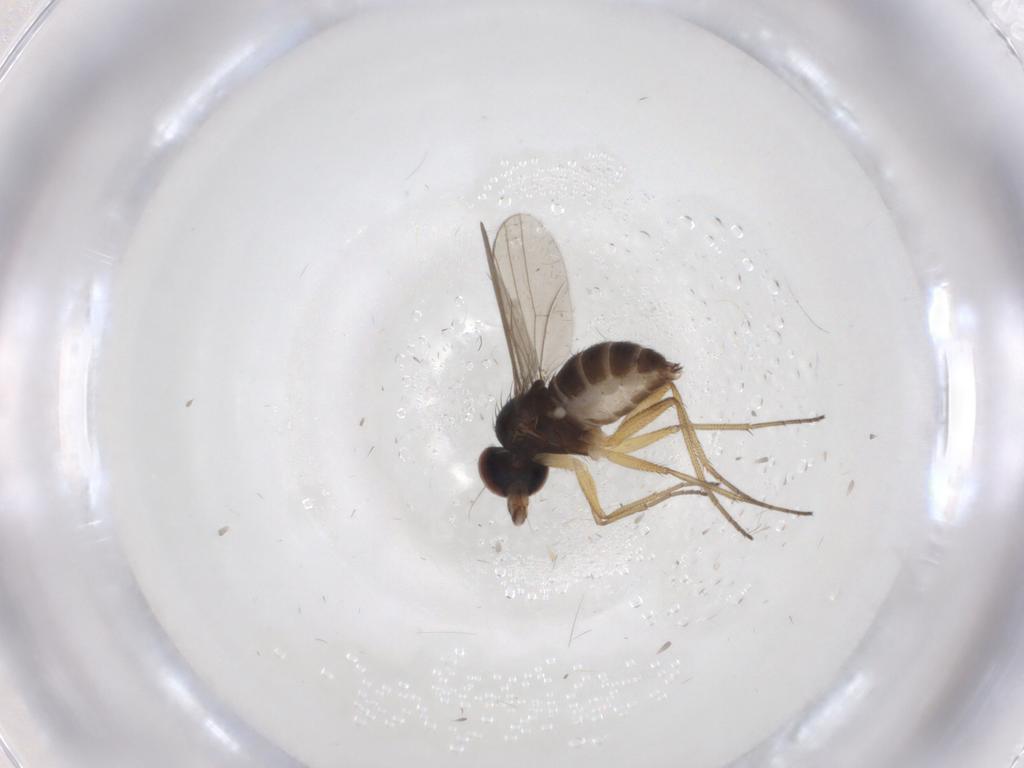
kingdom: Animalia
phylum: Arthropoda
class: Insecta
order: Diptera
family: Dolichopodidae
